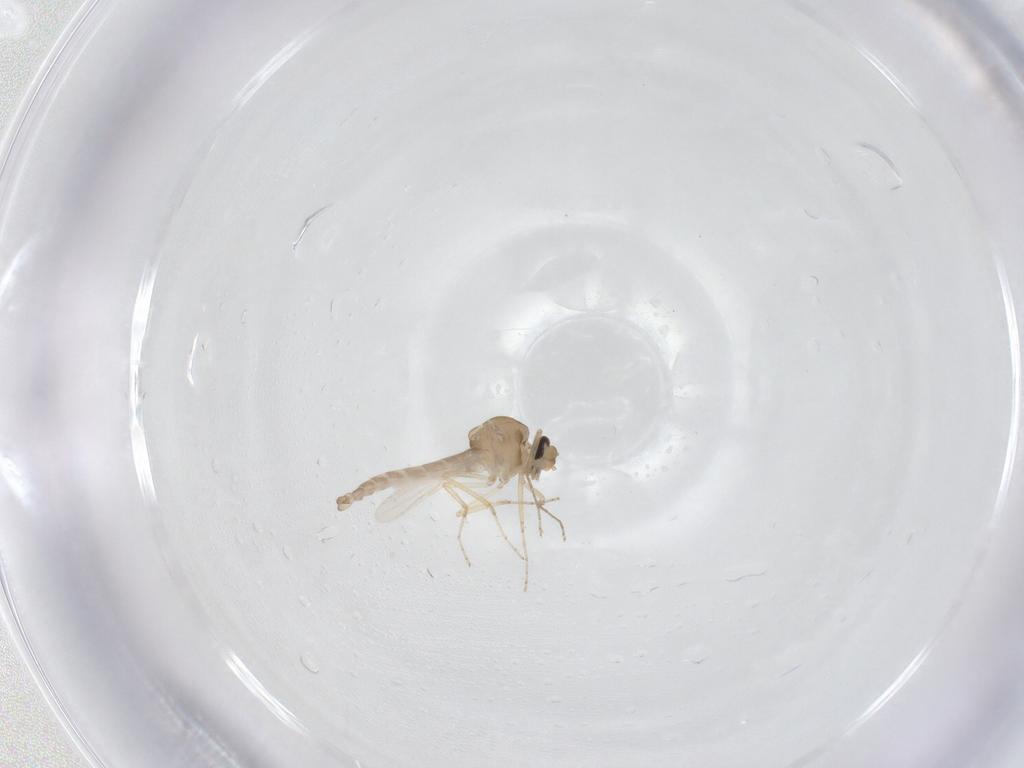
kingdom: Animalia
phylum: Arthropoda
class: Insecta
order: Diptera
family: Ceratopogonidae
